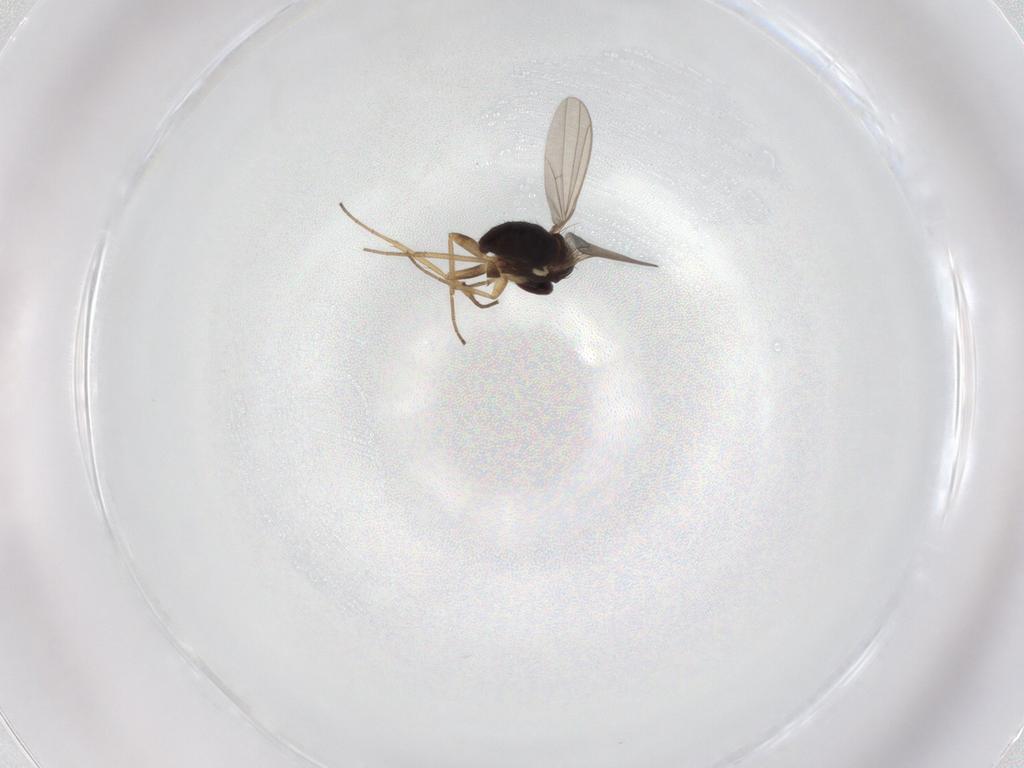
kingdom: Animalia
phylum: Arthropoda
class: Insecta
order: Diptera
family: Dolichopodidae
